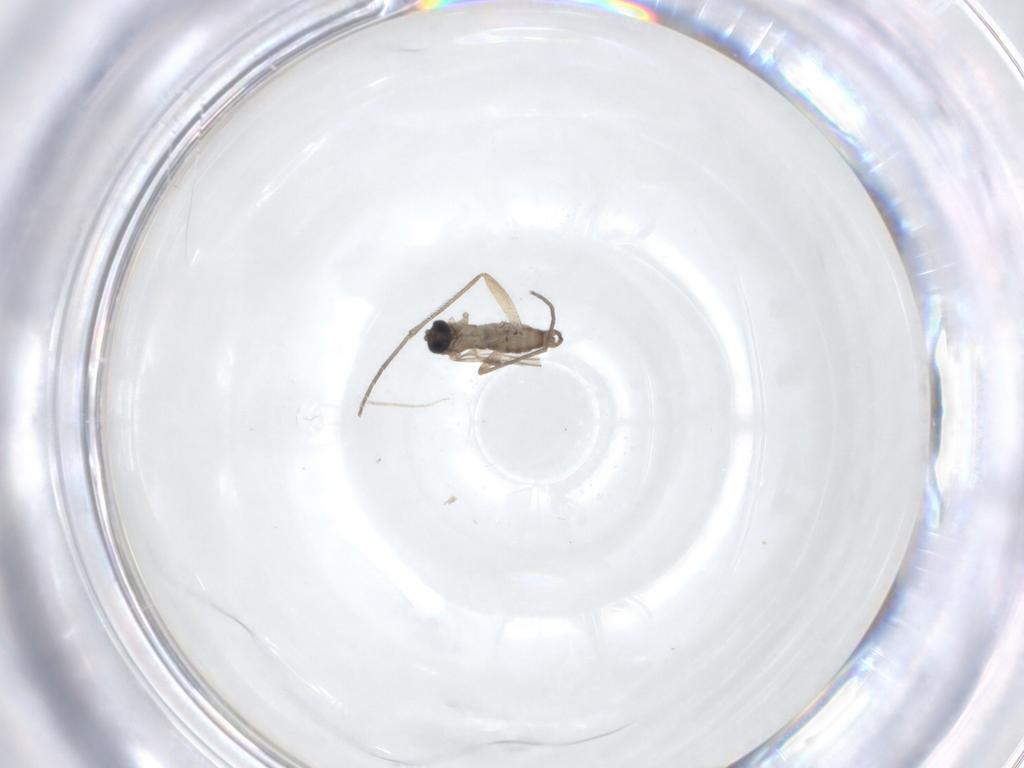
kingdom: Animalia
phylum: Arthropoda
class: Insecta
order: Diptera
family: Sciaridae
